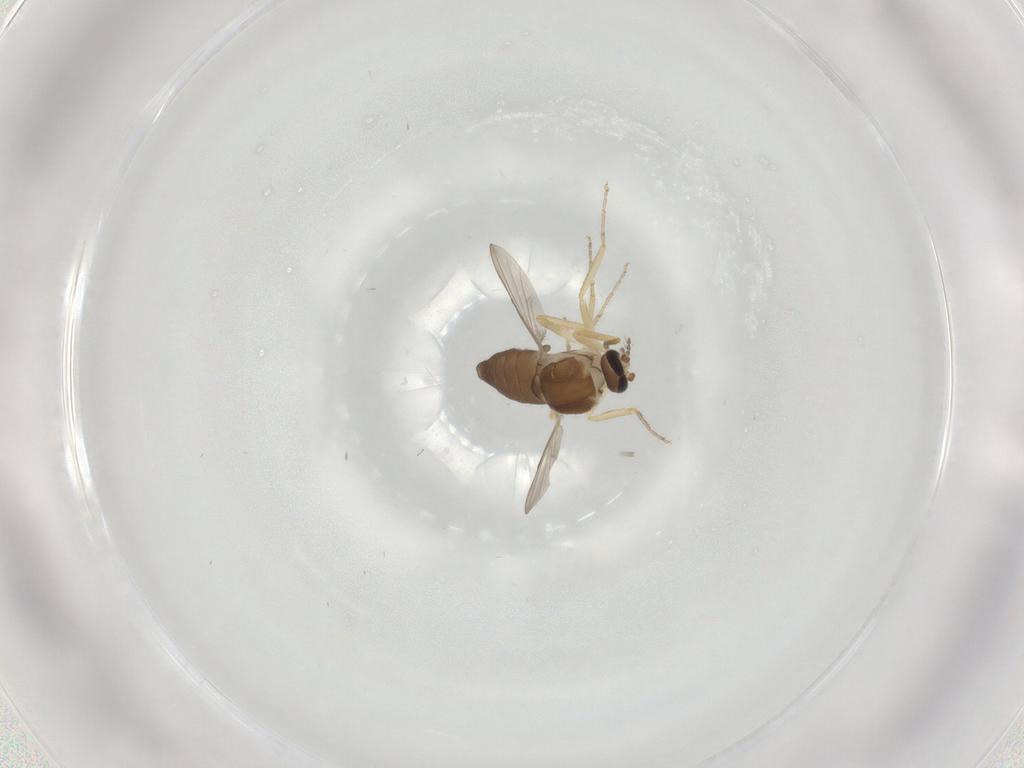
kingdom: Animalia
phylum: Arthropoda
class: Insecta
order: Diptera
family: Ceratopogonidae
